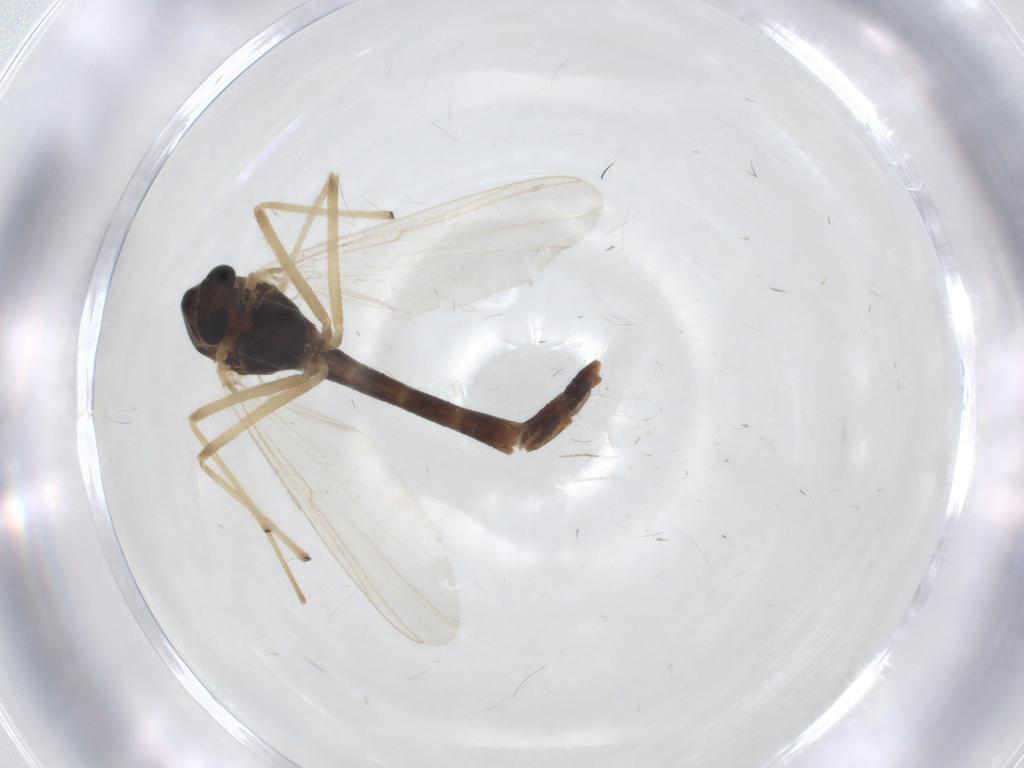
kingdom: Animalia
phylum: Arthropoda
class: Insecta
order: Diptera
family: Chironomidae
